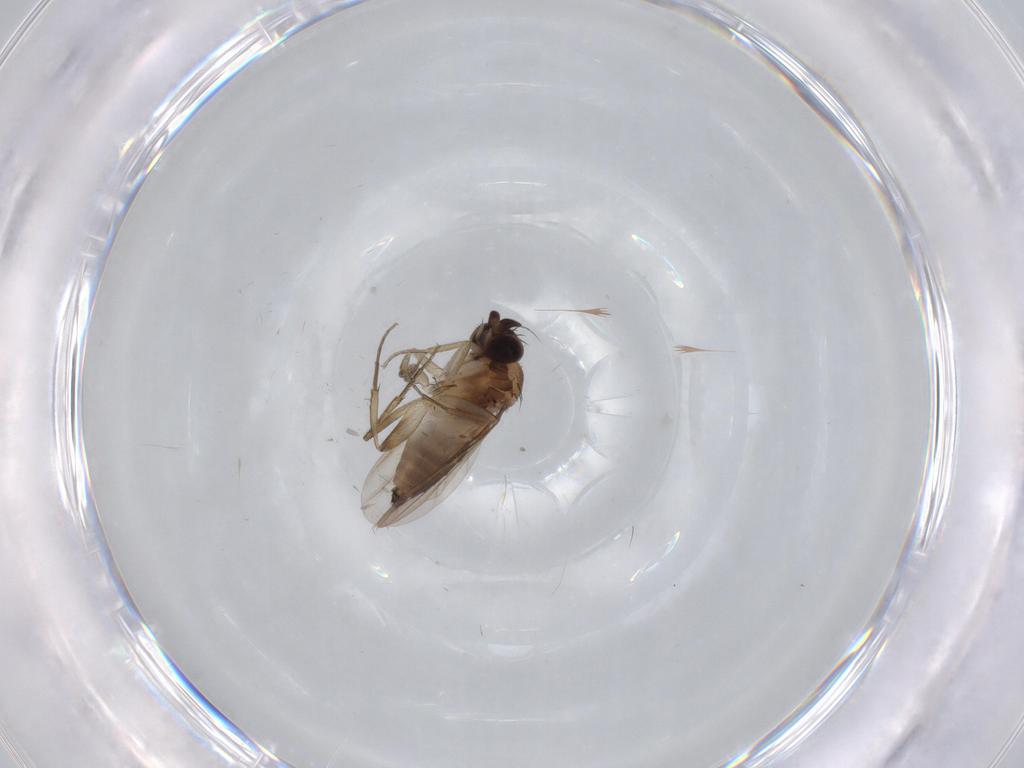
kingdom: Animalia
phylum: Arthropoda
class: Insecta
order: Diptera
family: Phoridae
